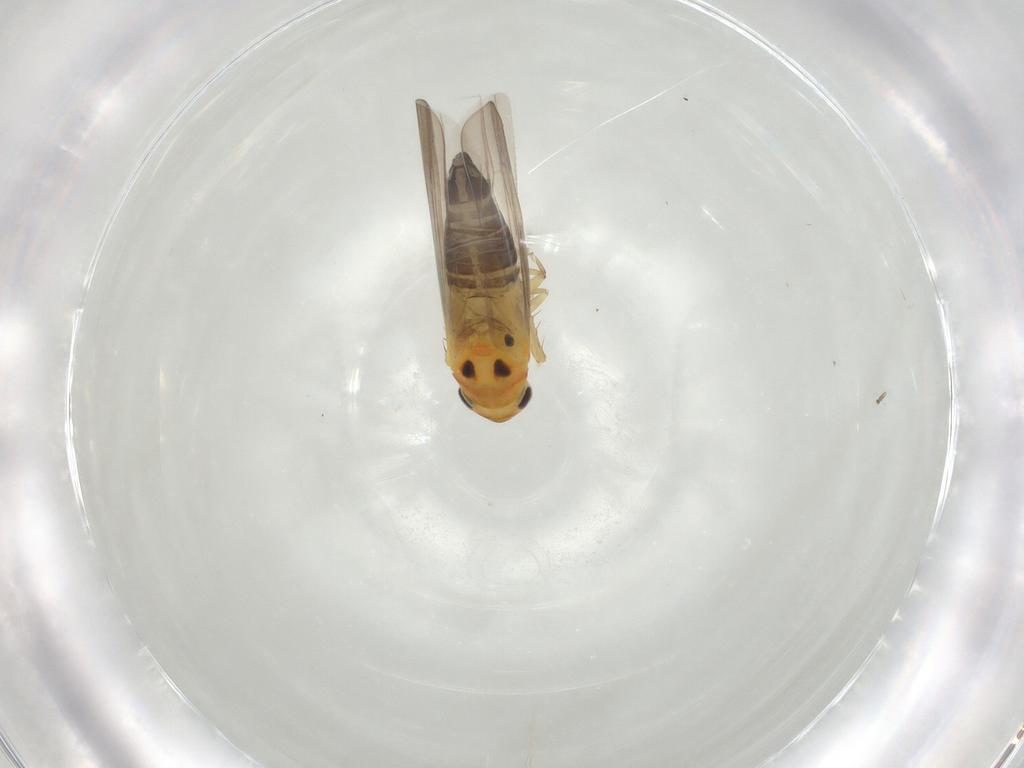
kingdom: Animalia
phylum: Arthropoda
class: Insecta
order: Hemiptera
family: Cicadellidae
